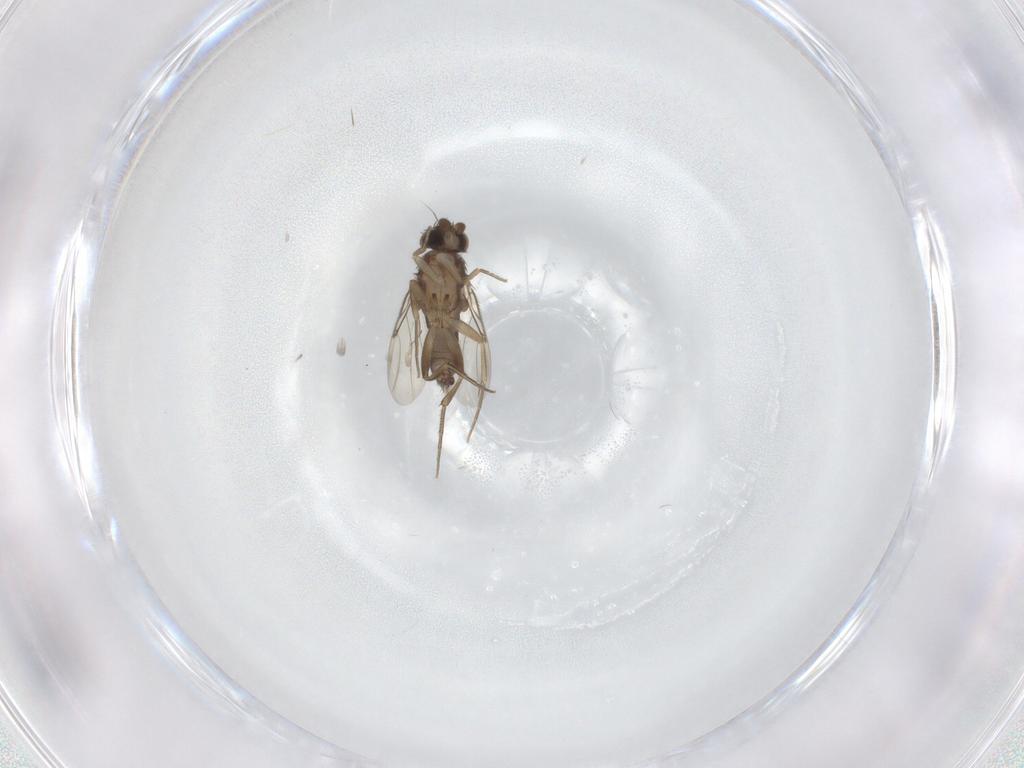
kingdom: Animalia
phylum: Arthropoda
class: Insecta
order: Diptera
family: Phoridae
